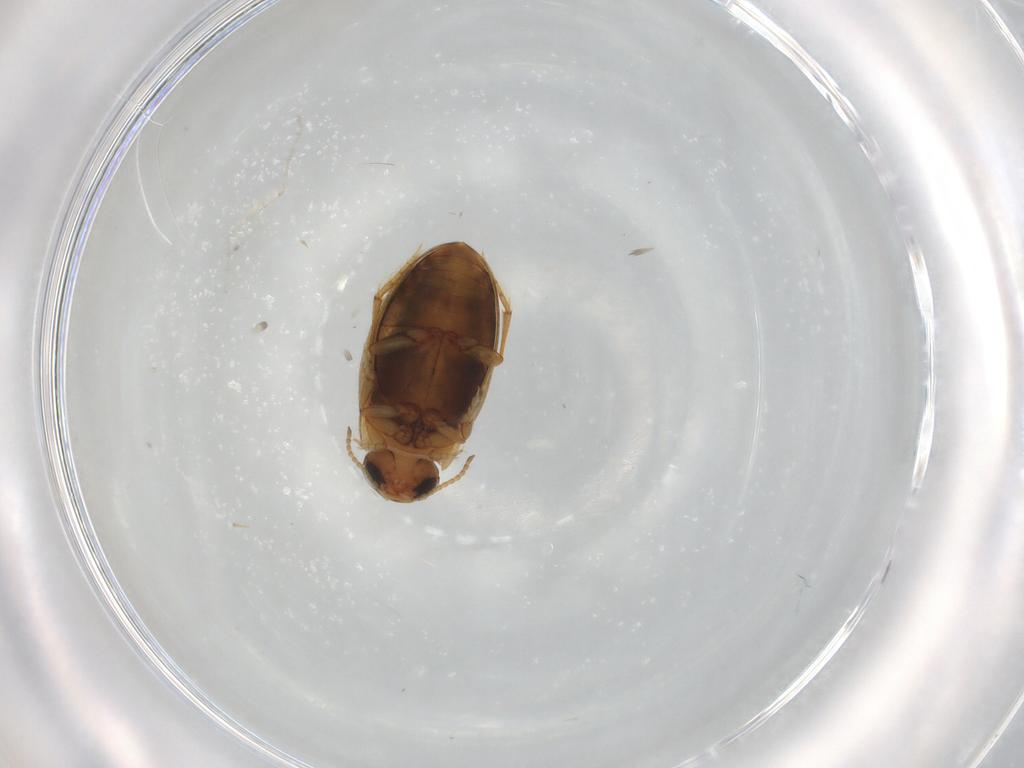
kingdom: Animalia
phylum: Arthropoda
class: Insecta
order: Coleoptera
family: Dytiscidae
